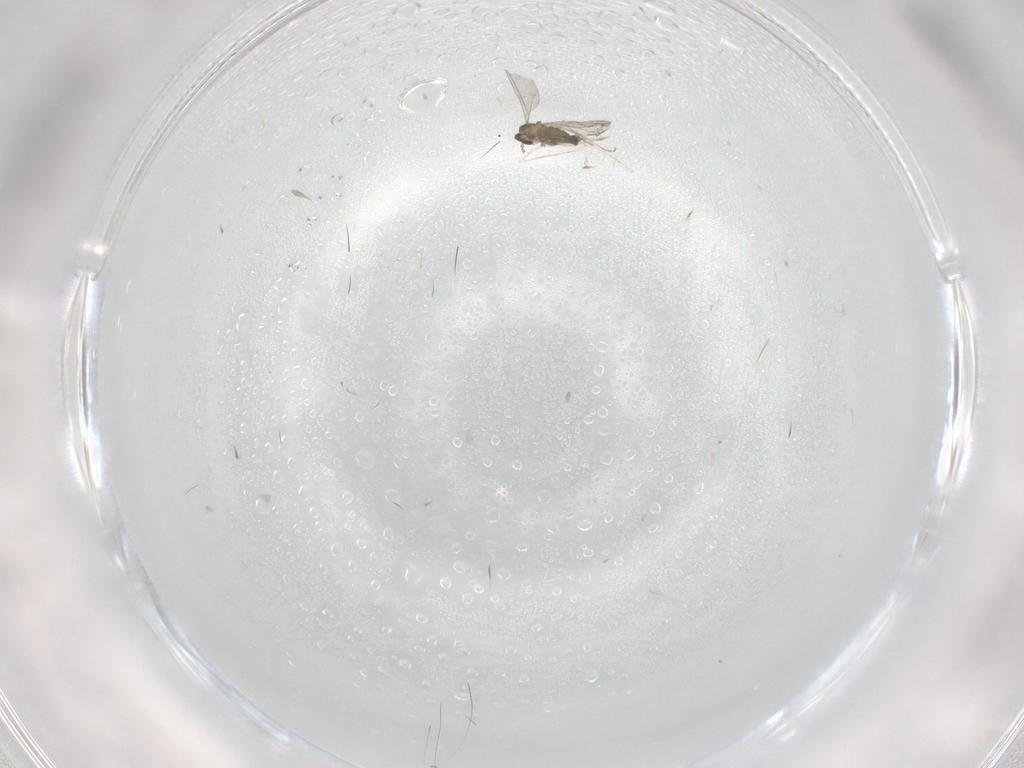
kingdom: Animalia
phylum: Arthropoda
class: Insecta
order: Diptera
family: Cecidomyiidae
